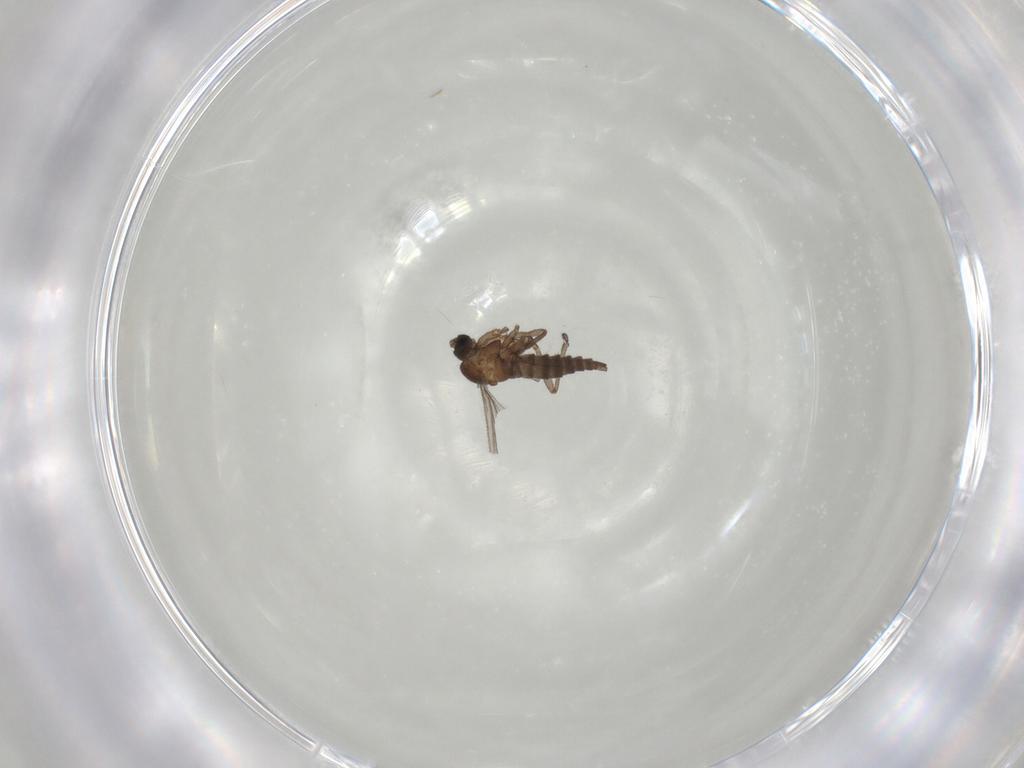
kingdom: Animalia
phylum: Arthropoda
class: Insecta
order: Diptera
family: Sciaridae
